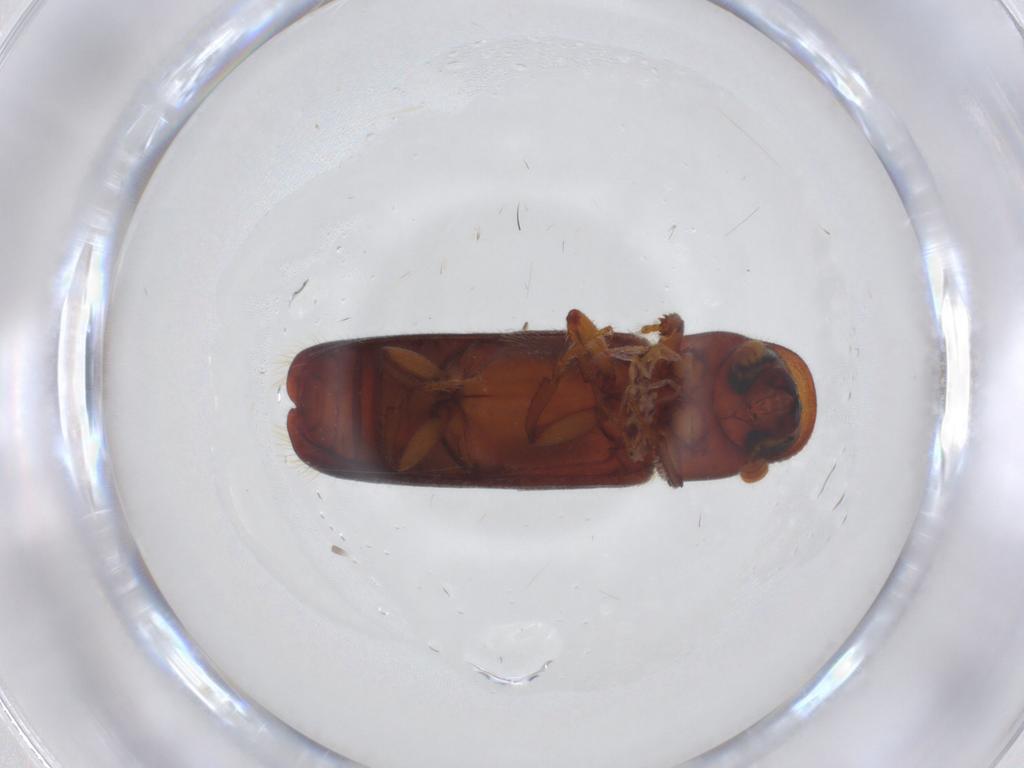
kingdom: Animalia
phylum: Arthropoda
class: Insecta
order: Coleoptera
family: Curculionidae
